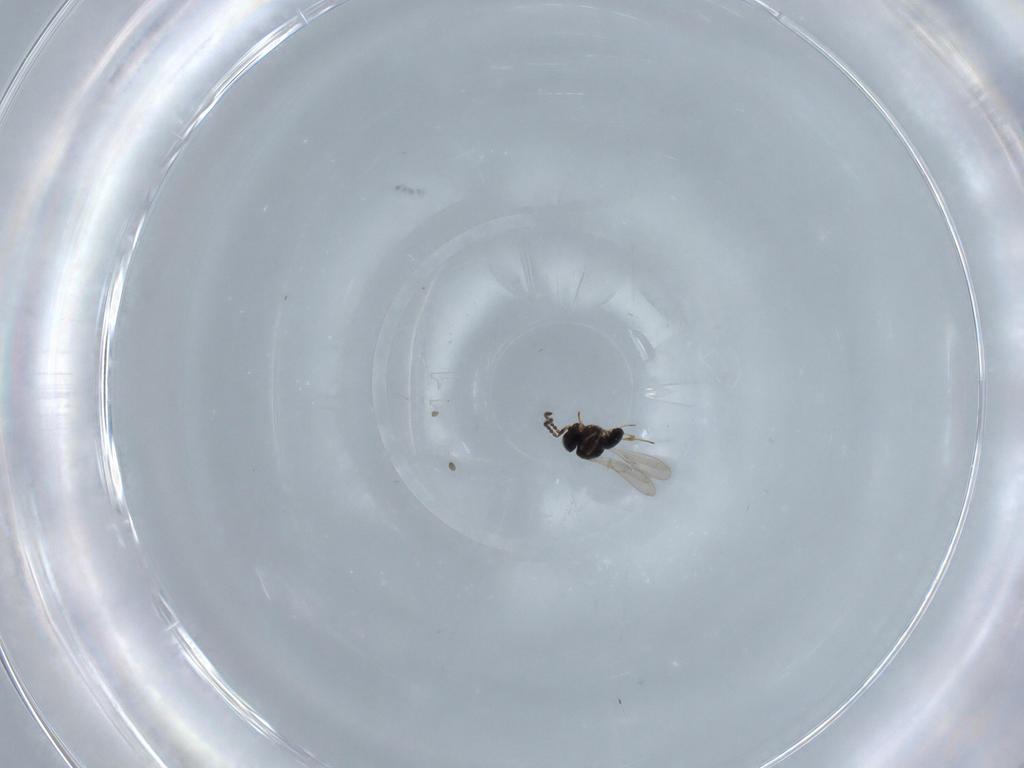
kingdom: Animalia
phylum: Arthropoda
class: Insecta
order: Hymenoptera
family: Scelionidae
